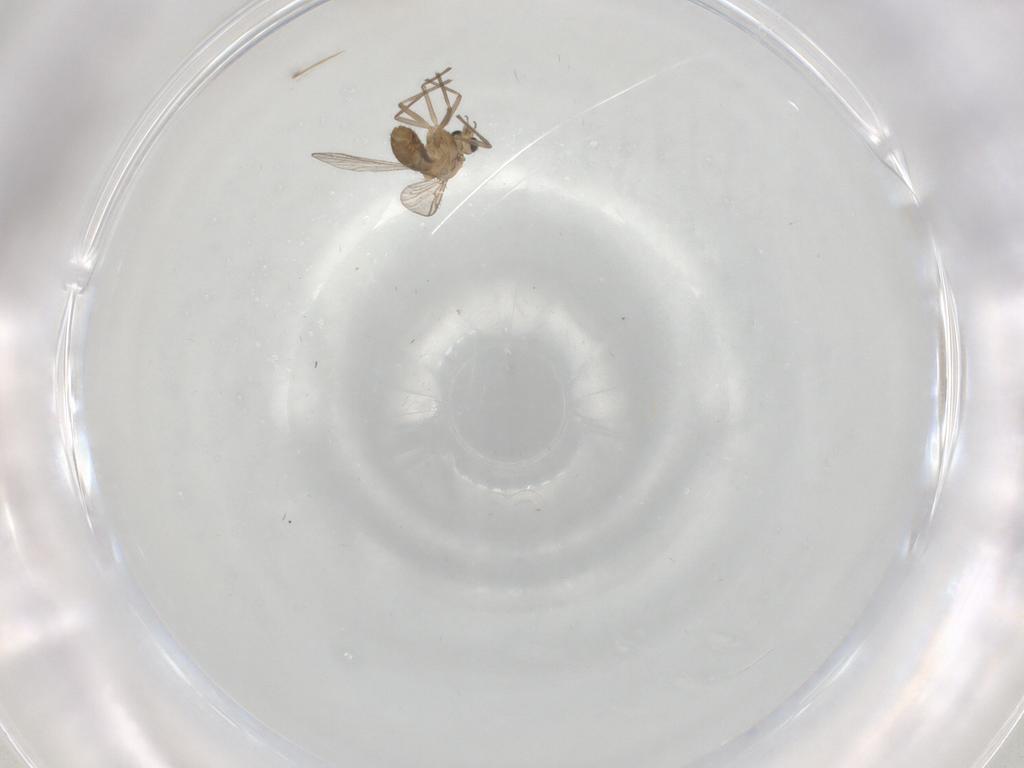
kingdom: Animalia
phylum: Arthropoda
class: Insecta
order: Diptera
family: Chironomidae
